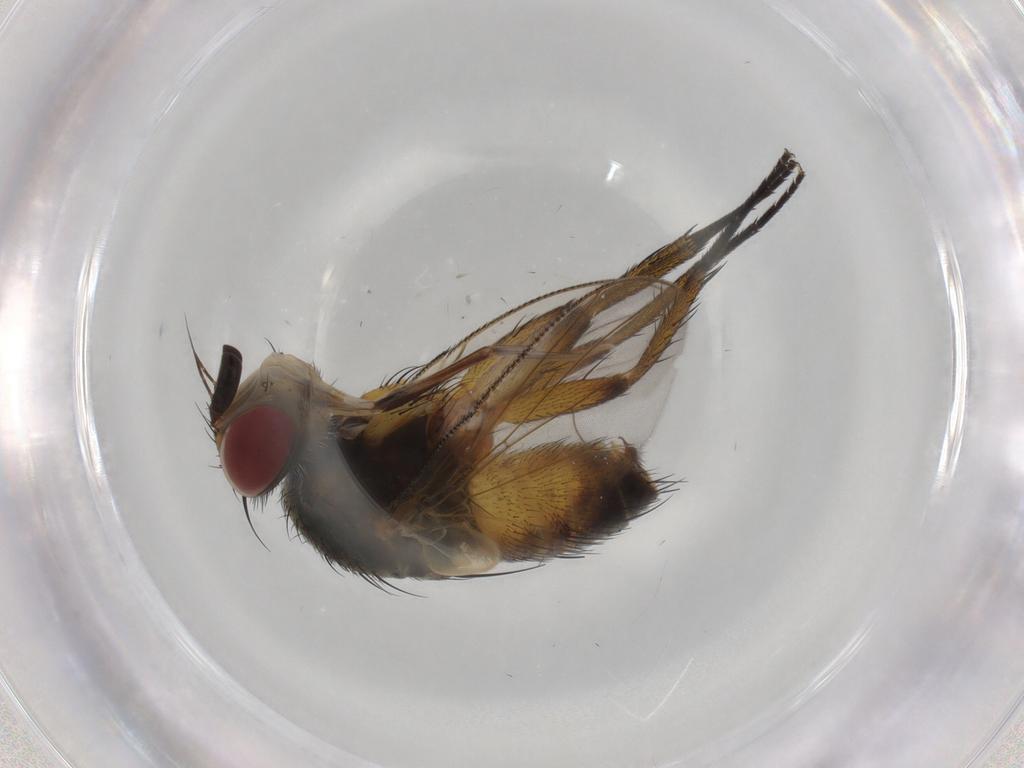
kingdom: Animalia
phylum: Arthropoda
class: Insecta
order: Diptera
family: Tachinidae
